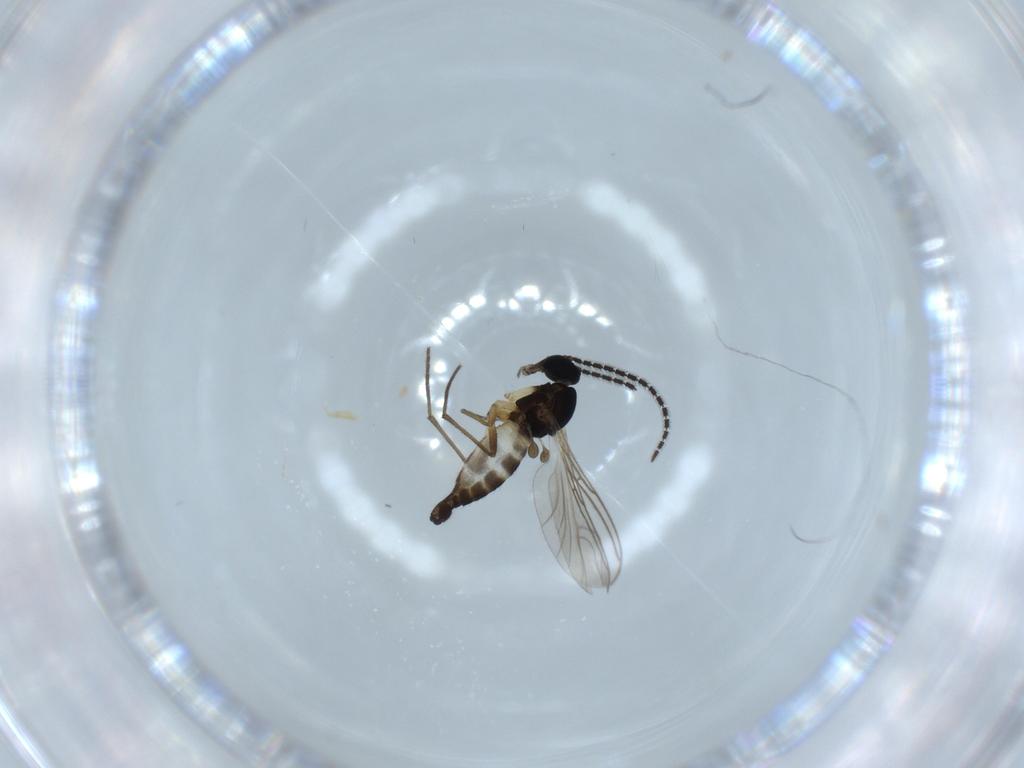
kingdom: Animalia
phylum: Arthropoda
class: Insecta
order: Diptera
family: Sciaridae
